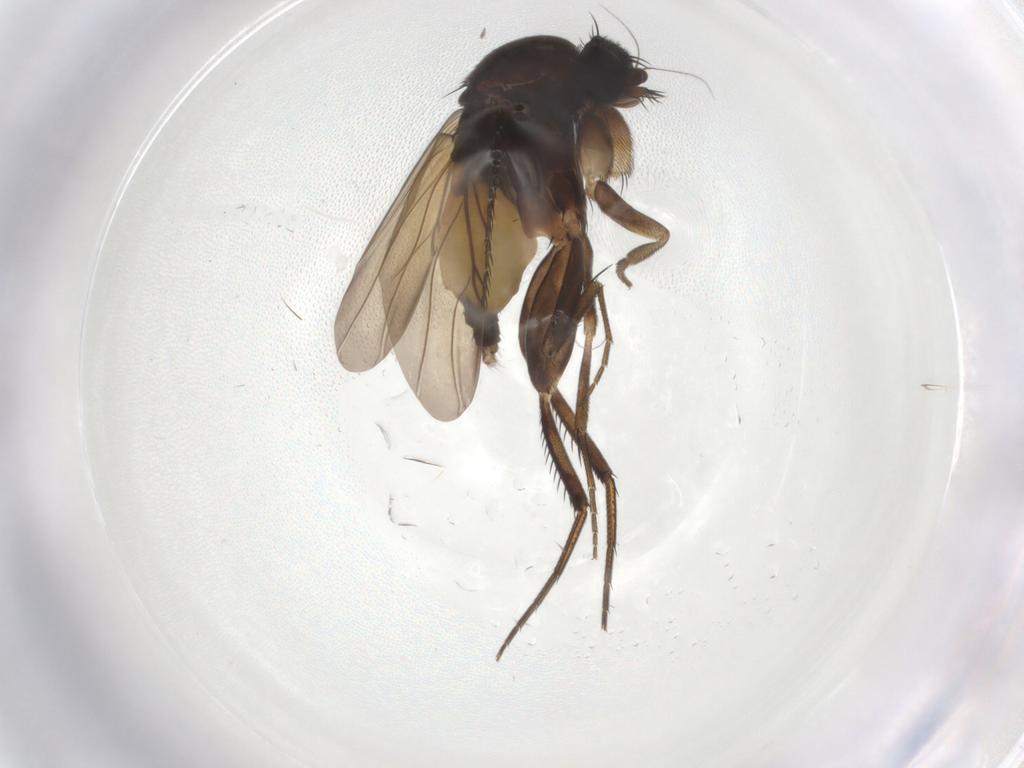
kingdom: Animalia
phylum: Arthropoda
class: Insecta
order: Diptera
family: Phoridae
